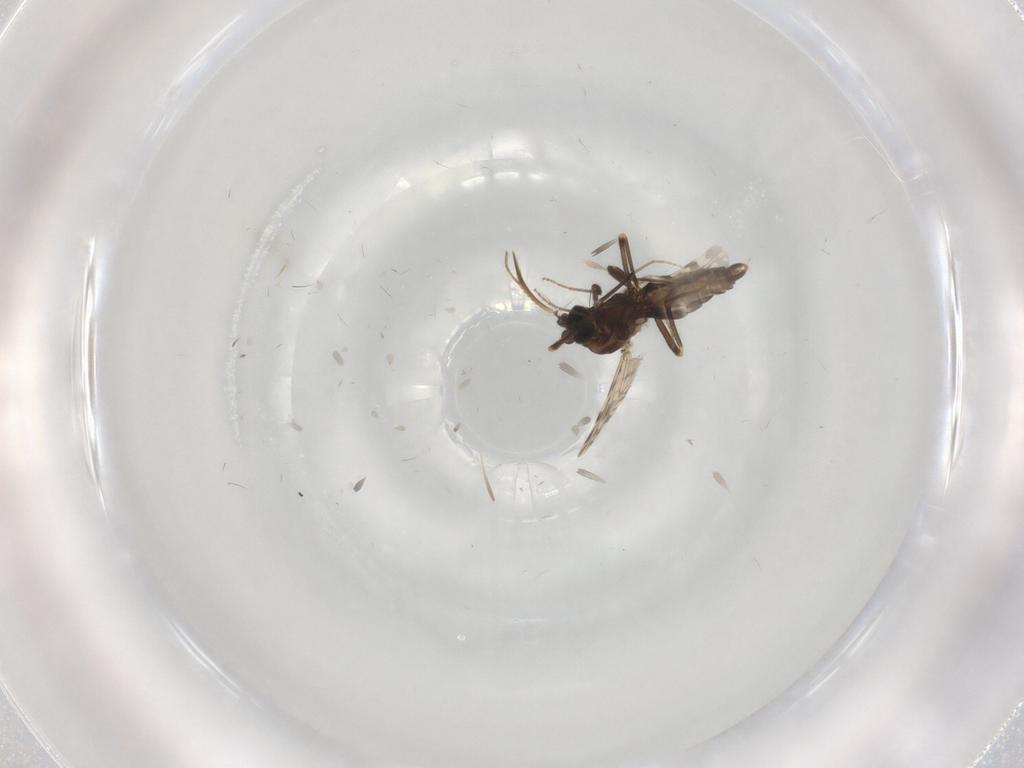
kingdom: Animalia
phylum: Arthropoda
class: Insecta
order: Diptera
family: Ceratopogonidae
